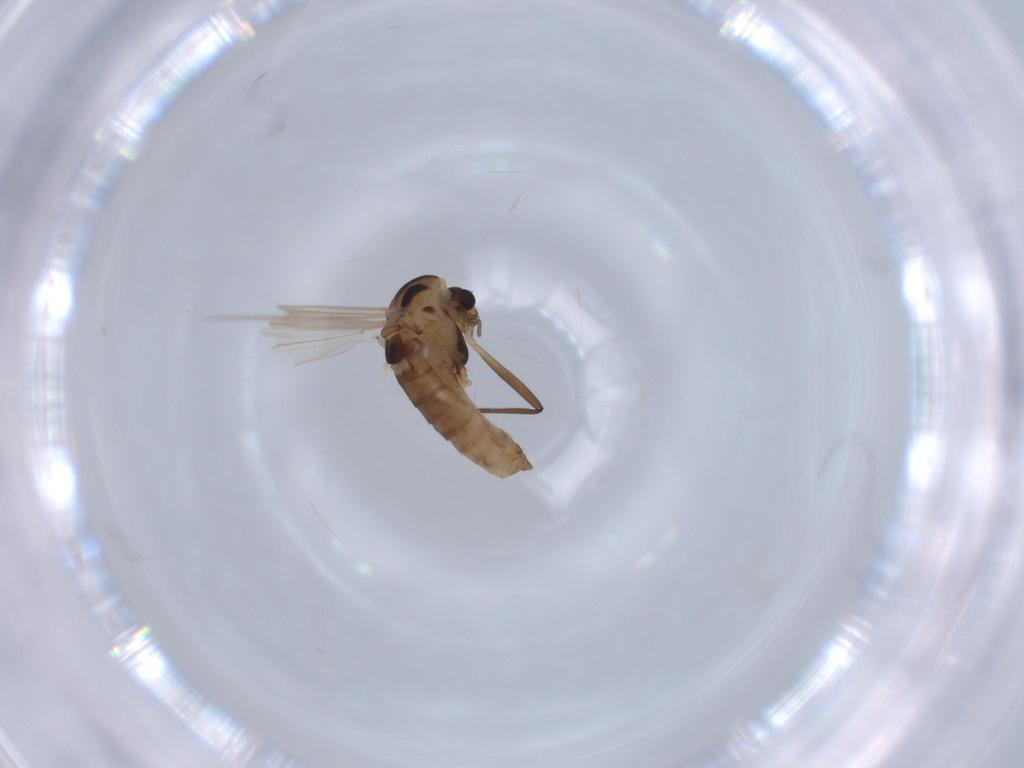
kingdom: Animalia
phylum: Arthropoda
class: Insecta
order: Diptera
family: Chironomidae
